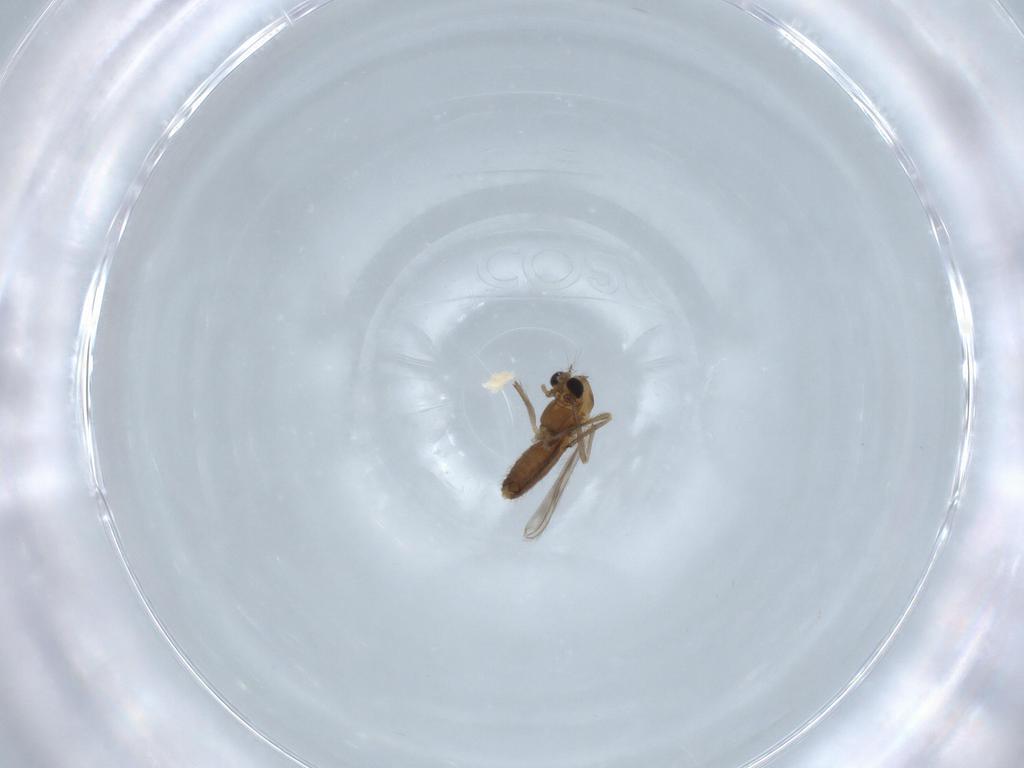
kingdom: Animalia
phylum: Arthropoda
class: Insecta
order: Diptera
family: Chironomidae
